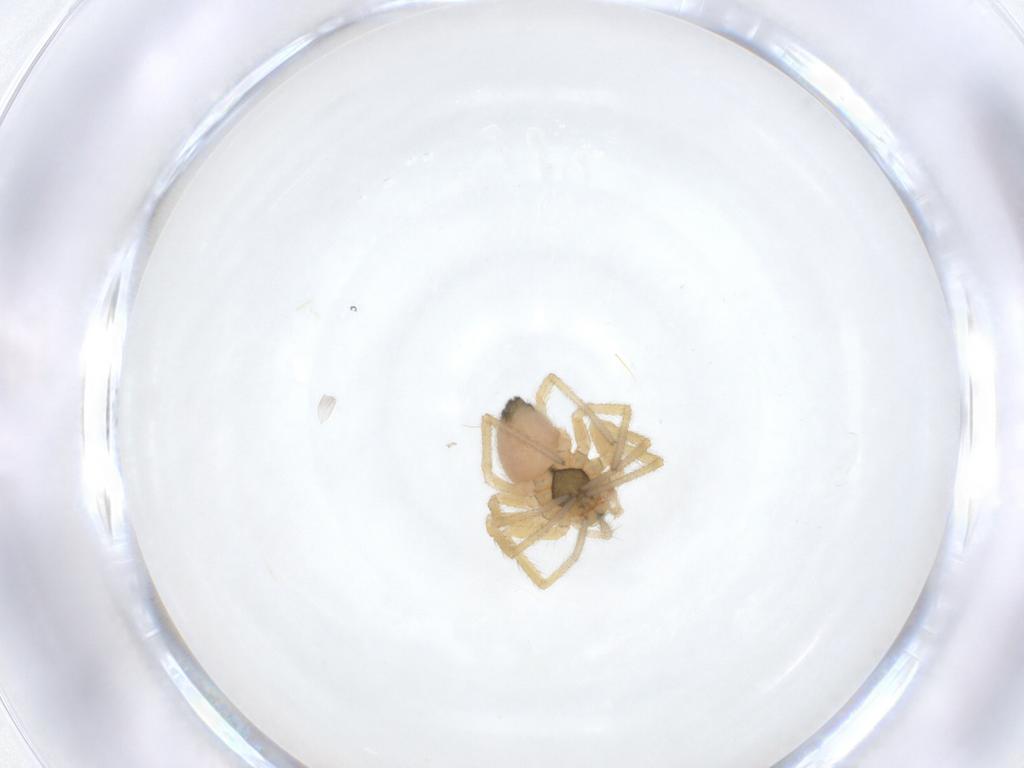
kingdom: Animalia
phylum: Arthropoda
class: Arachnida
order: Araneae
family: Linyphiidae
